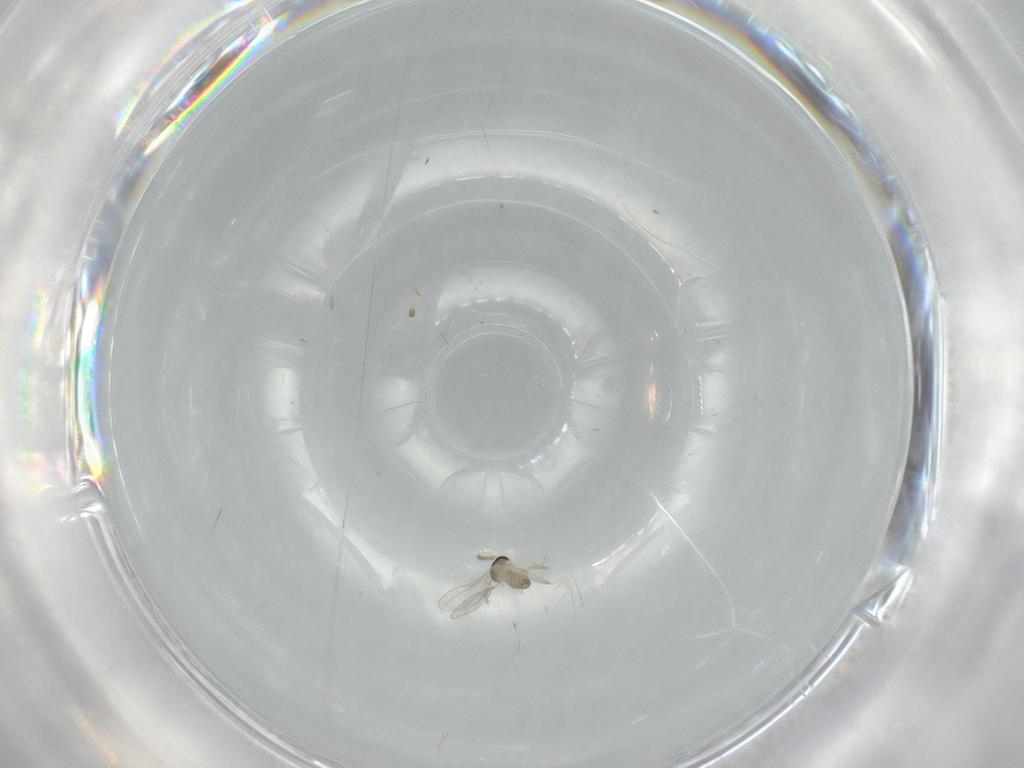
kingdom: Animalia
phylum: Arthropoda
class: Insecta
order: Diptera
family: Cecidomyiidae
